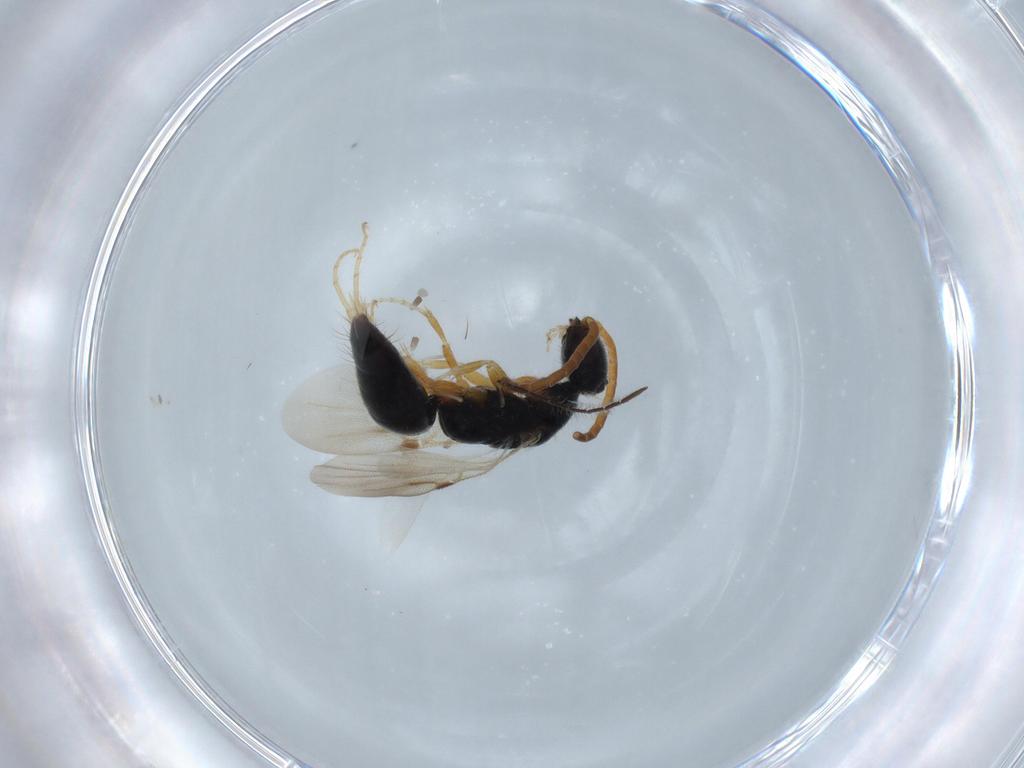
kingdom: Animalia
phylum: Arthropoda
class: Insecta
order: Hymenoptera
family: Bethylidae
